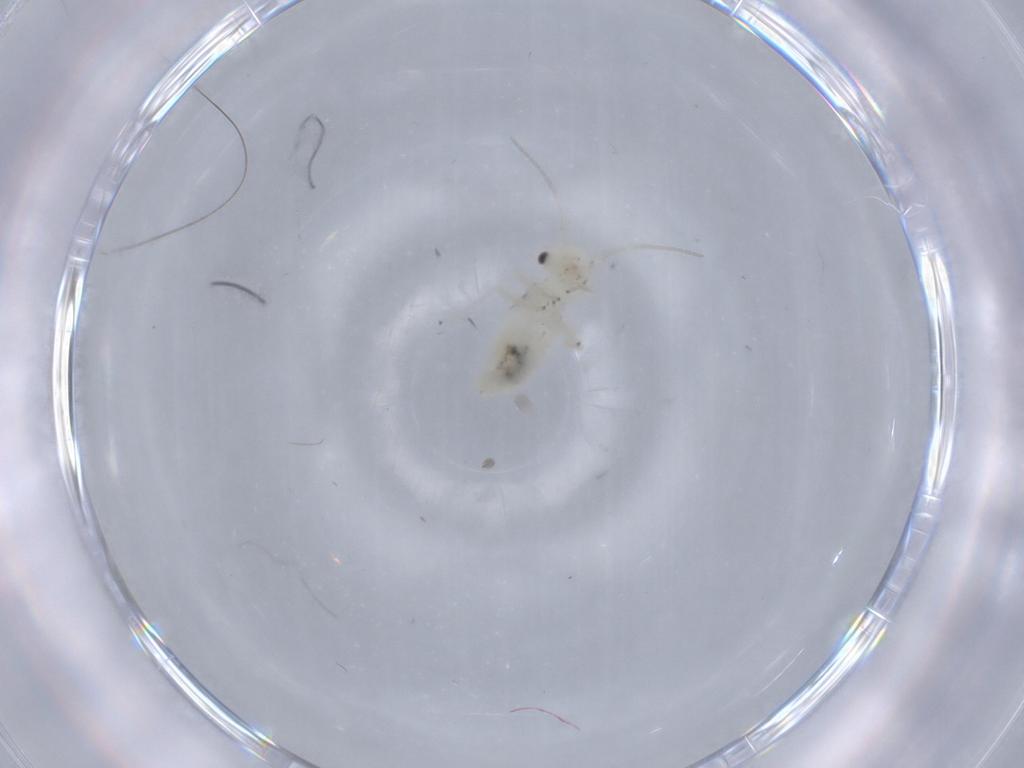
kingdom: Animalia
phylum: Arthropoda
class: Insecta
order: Psocodea
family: Caeciliusidae
